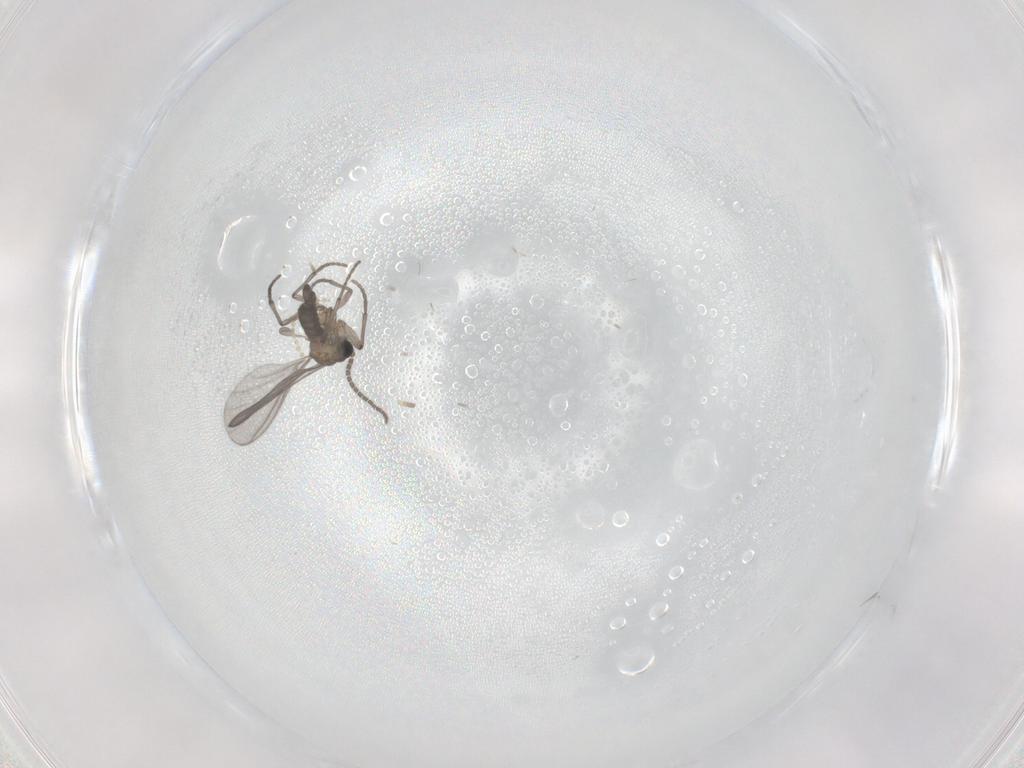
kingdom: Animalia
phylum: Arthropoda
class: Insecta
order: Diptera
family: Sciaridae
